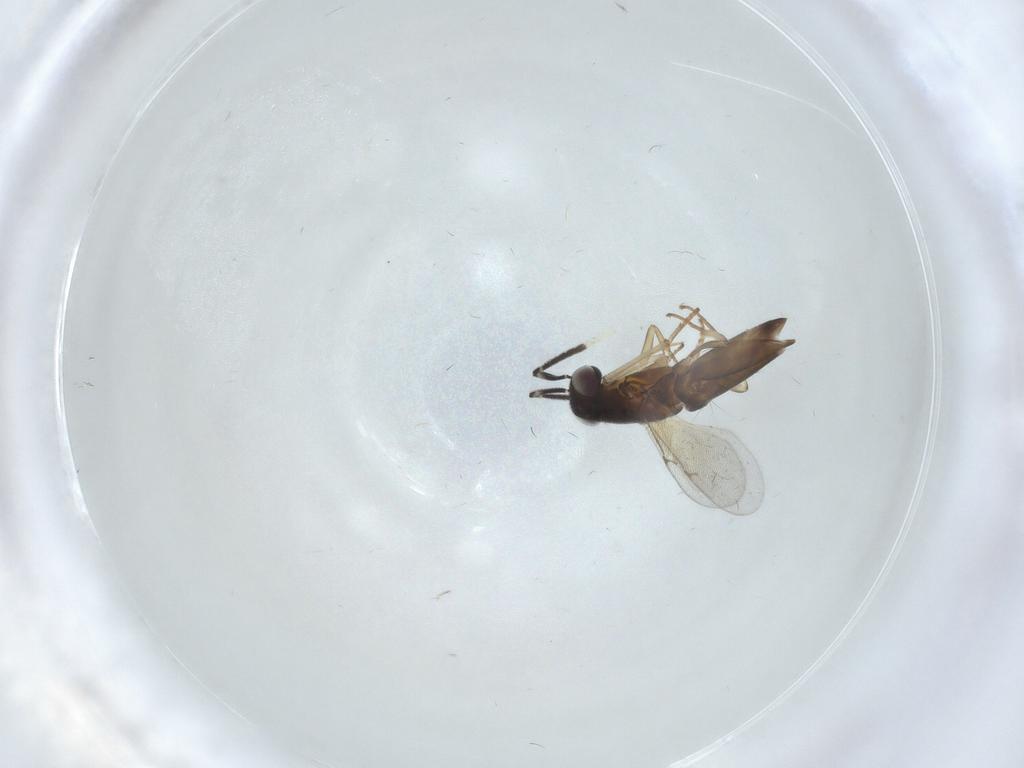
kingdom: Animalia
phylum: Arthropoda
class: Insecta
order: Hymenoptera
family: Encyrtidae
